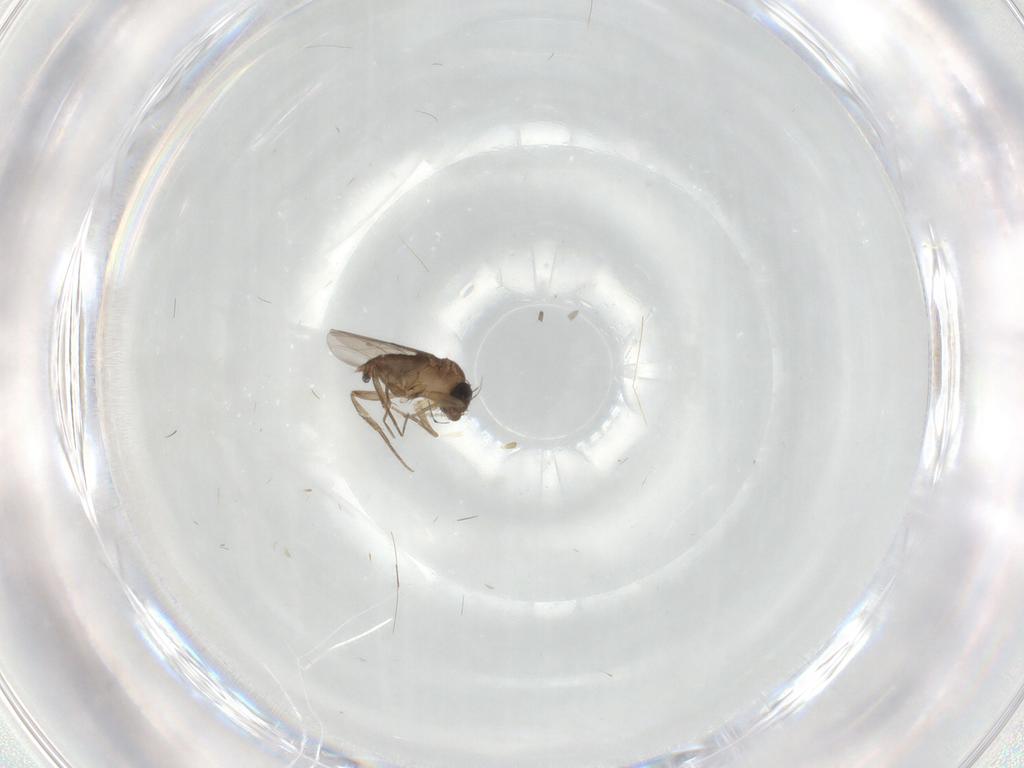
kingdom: Animalia
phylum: Arthropoda
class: Insecta
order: Diptera
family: Phoridae
